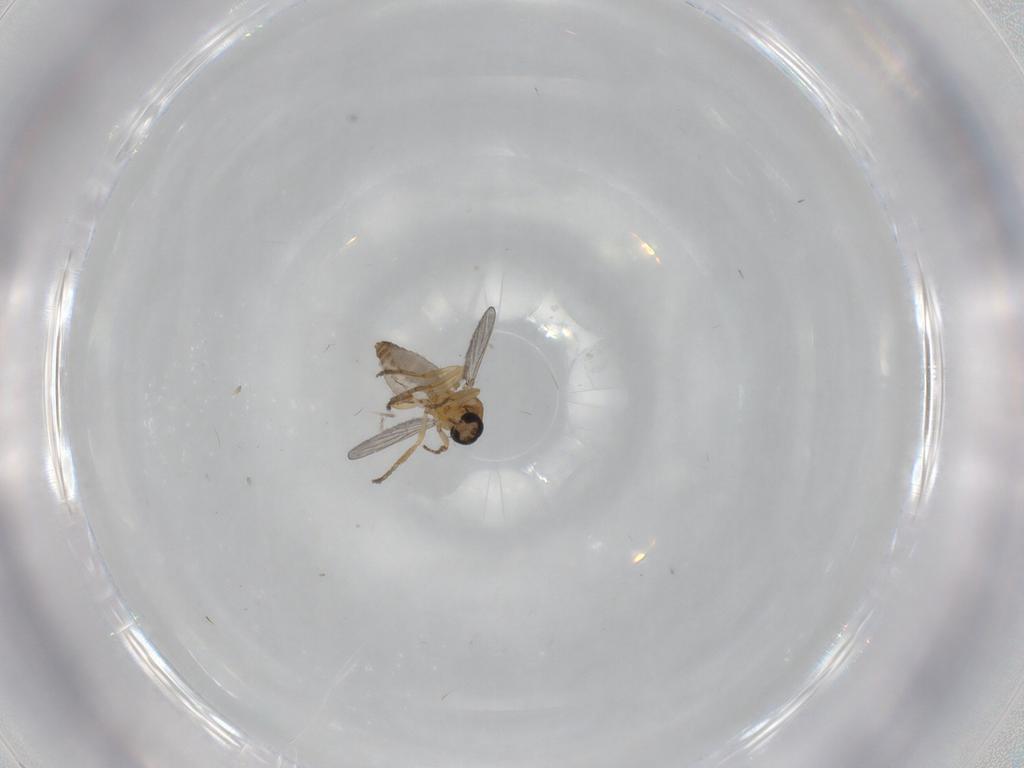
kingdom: Animalia
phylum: Arthropoda
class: Insecta
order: Diptera
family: Ceratopogonidae
